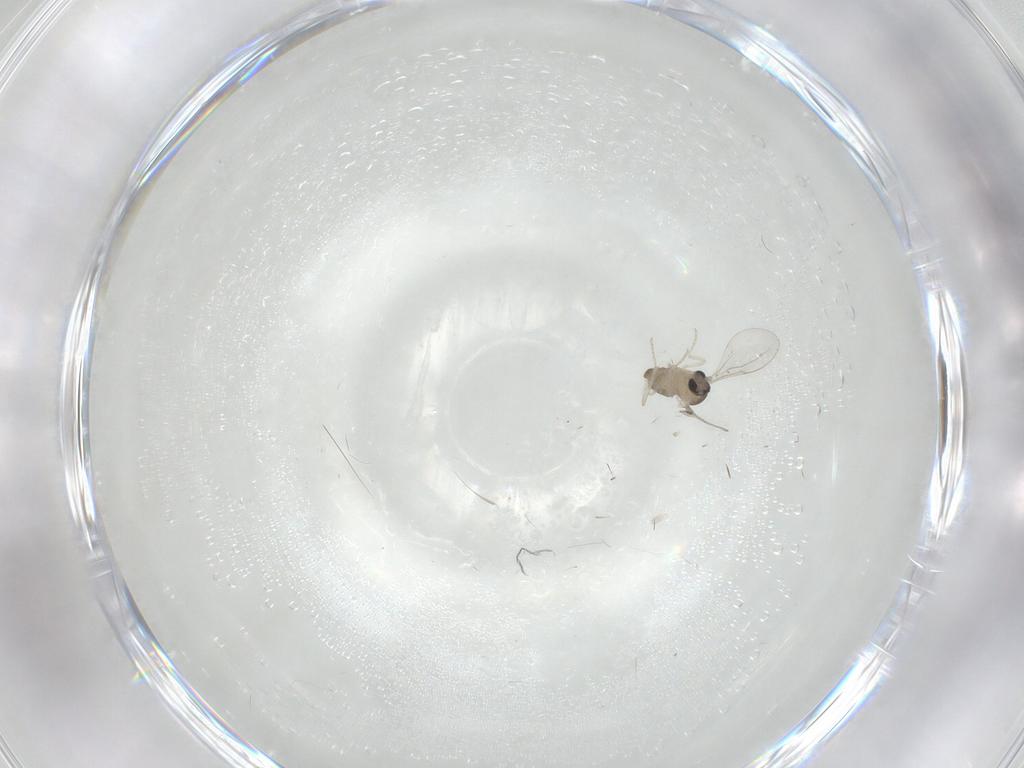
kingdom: Animalia
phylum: Arthropoda
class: Insecta
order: Diptera
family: Cecidomyiidae
